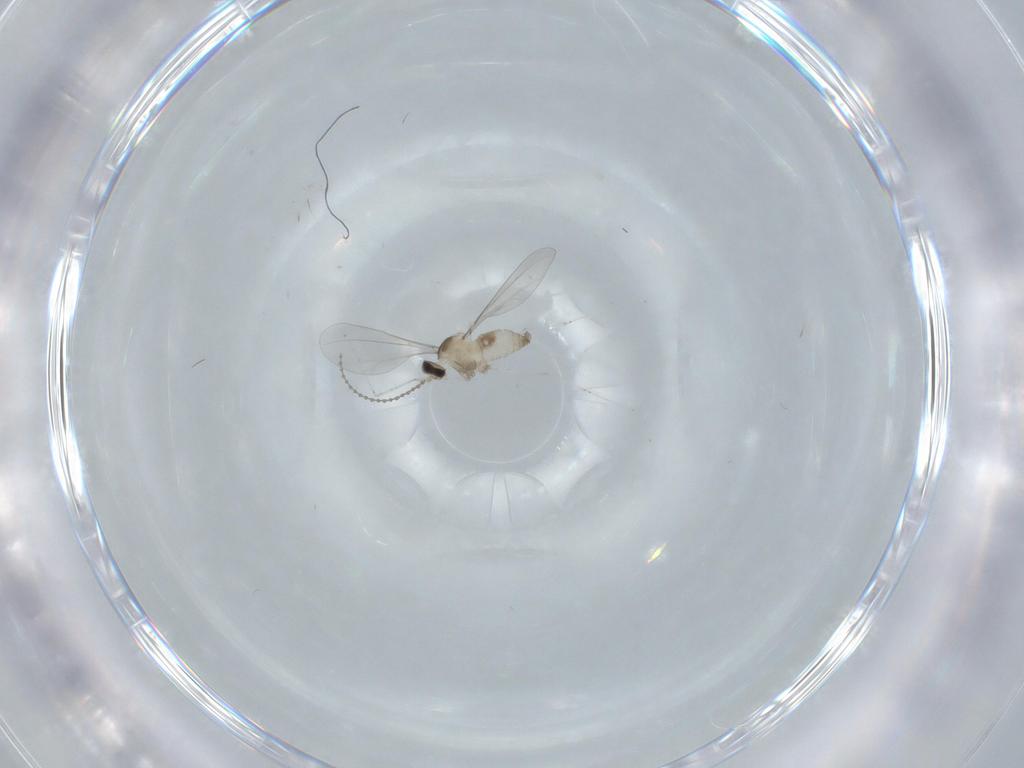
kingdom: Animalia
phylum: Arthropoda
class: Insecta
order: Diptera
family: Cecidomyiidae
